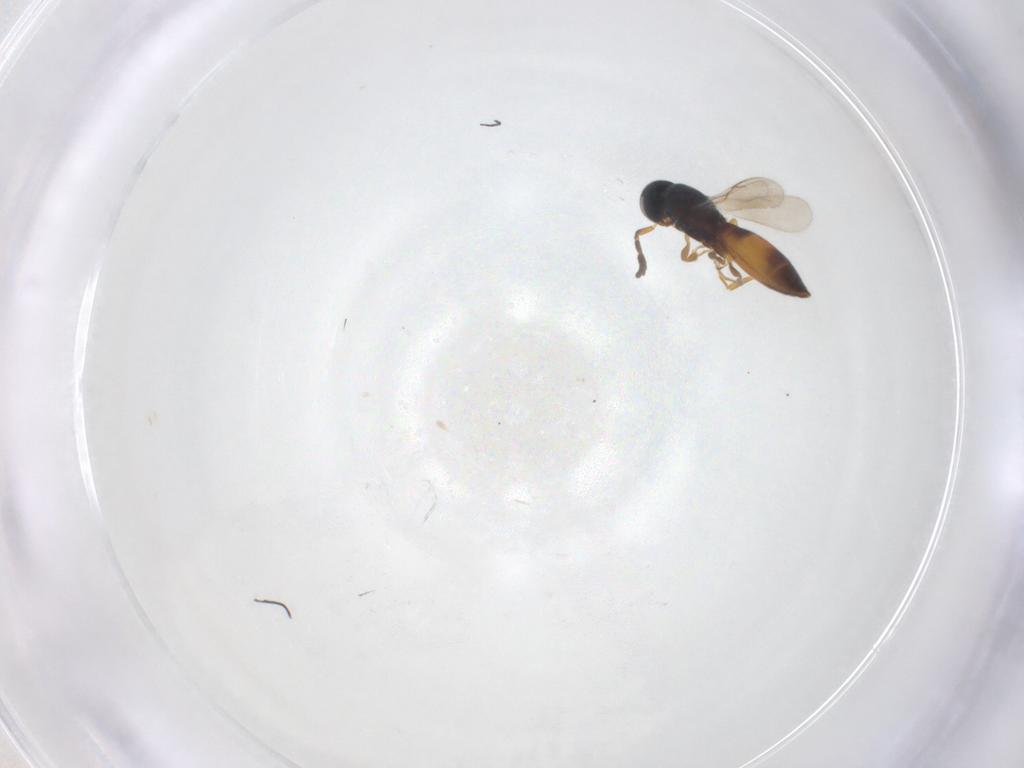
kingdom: Animalia
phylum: Arthropoda
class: Insecta
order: Hymenoptera
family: Scelionidae
